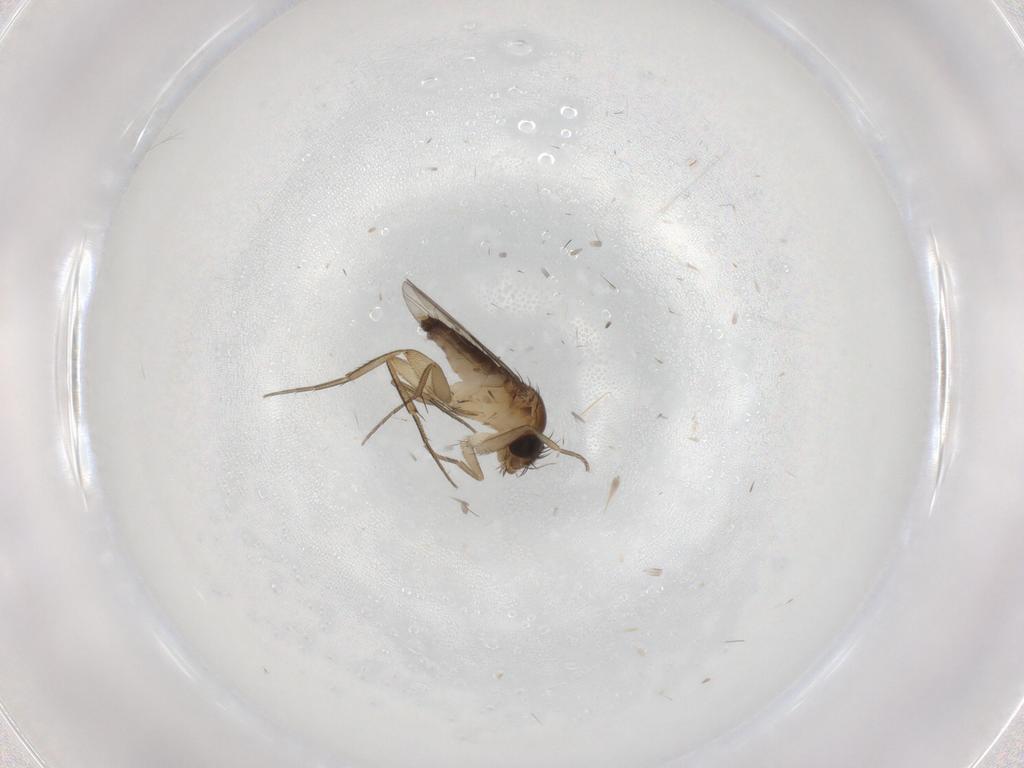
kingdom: Animalia
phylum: Arthropoda
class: Insecta
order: Diptera
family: Phoridae
